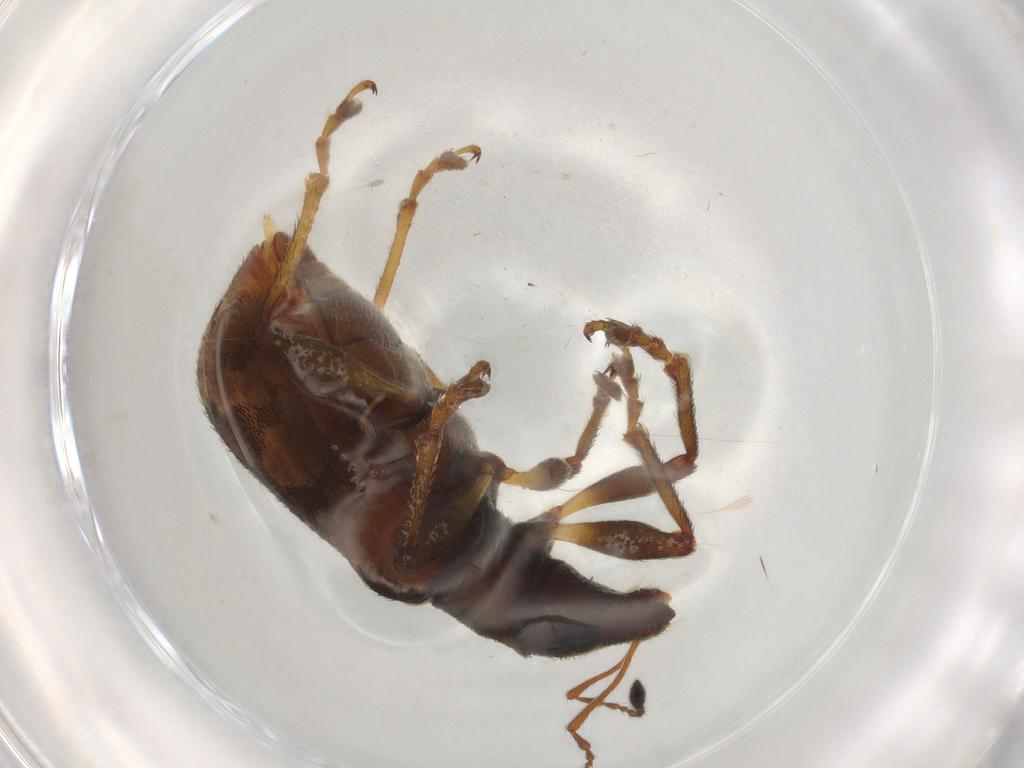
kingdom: Animalia
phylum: Arthropoda
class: Insecta
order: Coleoptera
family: Curculionidae
